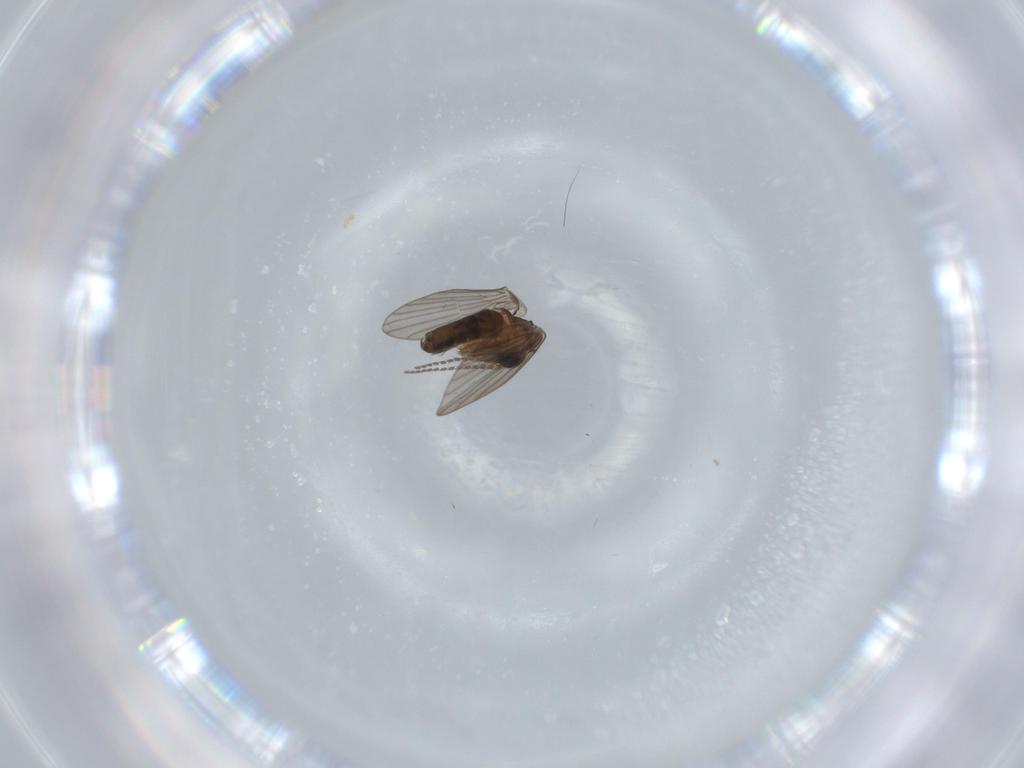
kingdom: Animalia
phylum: Arthropoda
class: Insecta
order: Diptera
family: Psychodidae
